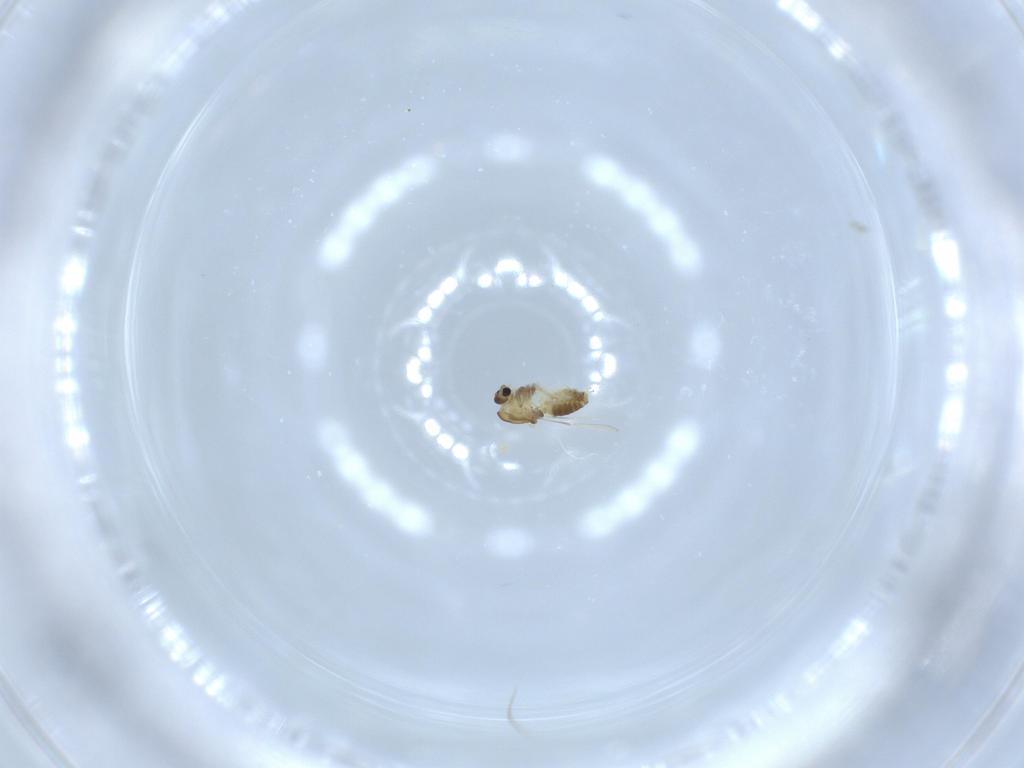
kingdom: Animalia
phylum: Arthropoda
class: Insecta
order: Diptera
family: Chironomidae
